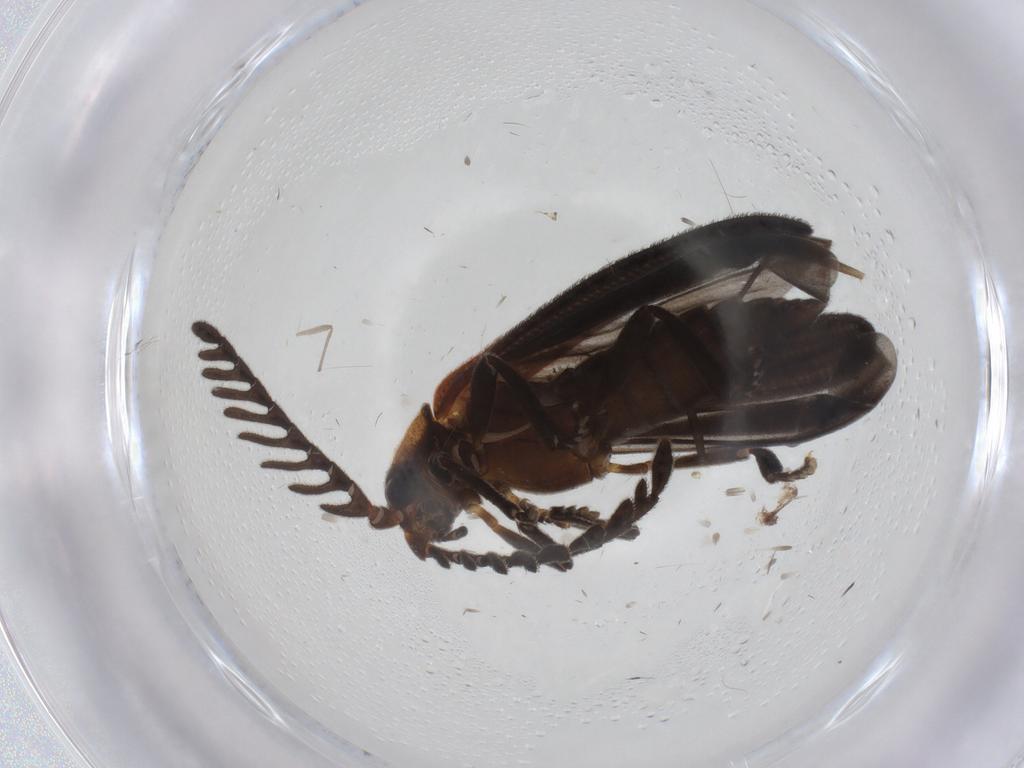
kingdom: Animalia
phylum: Arthropoda
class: Insecta
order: Coleoptera
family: Lycidae
